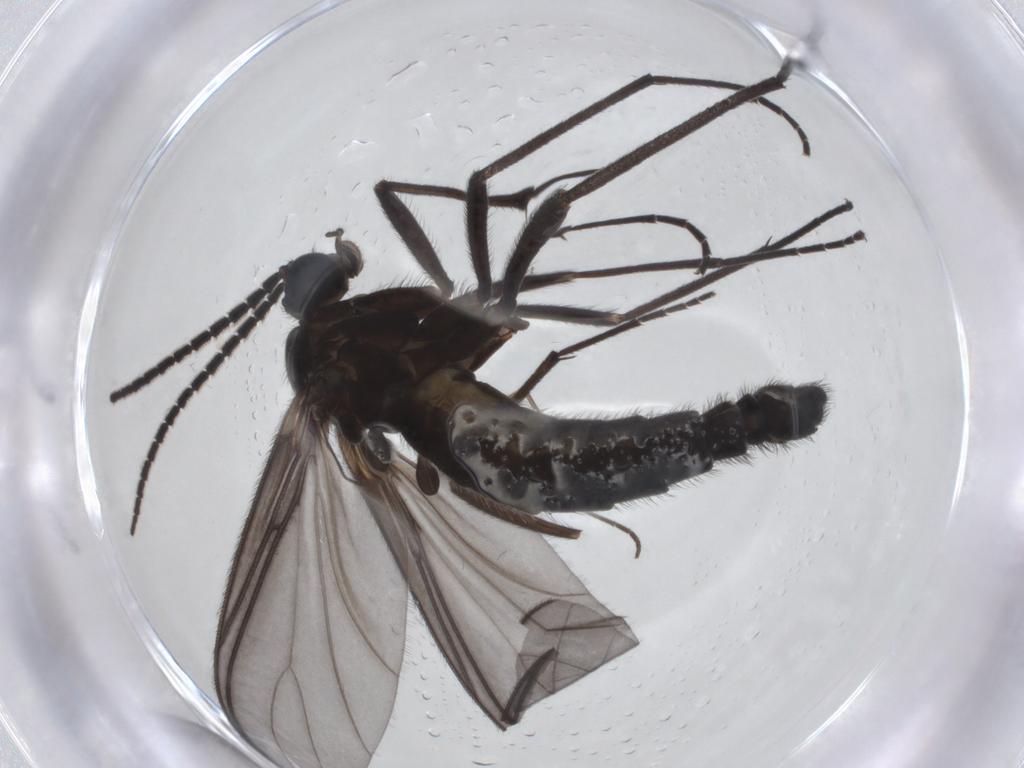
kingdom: Animalia
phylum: Arthropoda
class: Insecta
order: Diptera
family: Sciaridae
